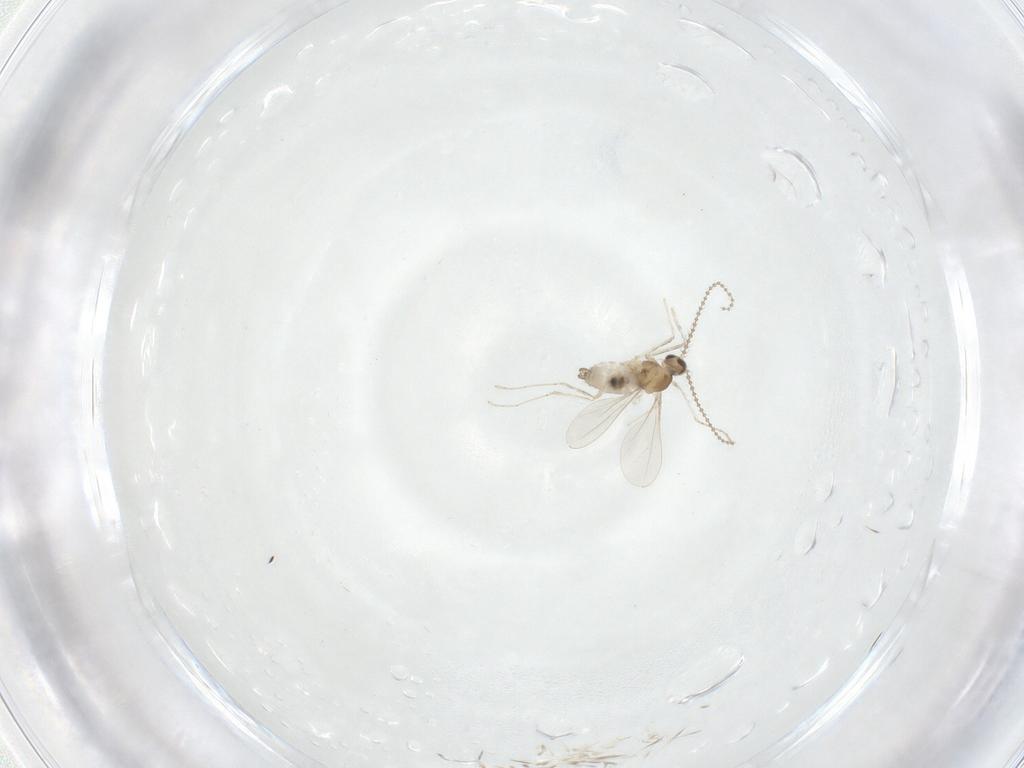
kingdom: Animalia
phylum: Arthropoda
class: Insecta
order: Diptera
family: Cecidomyiidae
